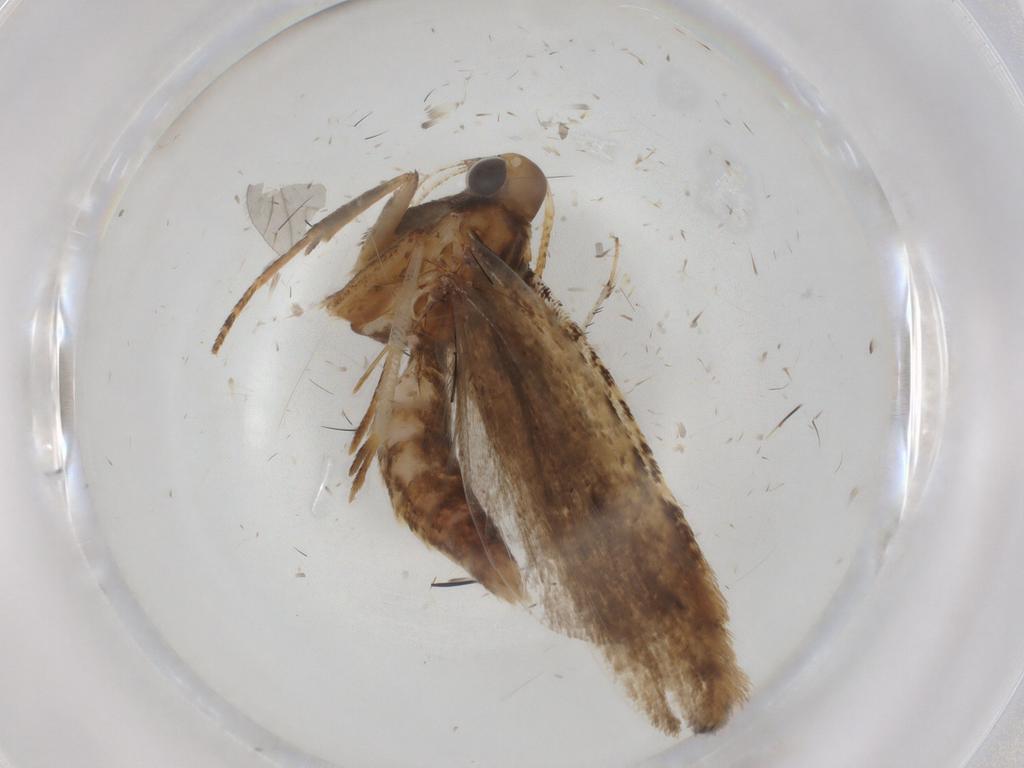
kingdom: Animalia
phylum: Arthropoda
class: Insecta
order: Lepidoptera
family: Gelechiidae
